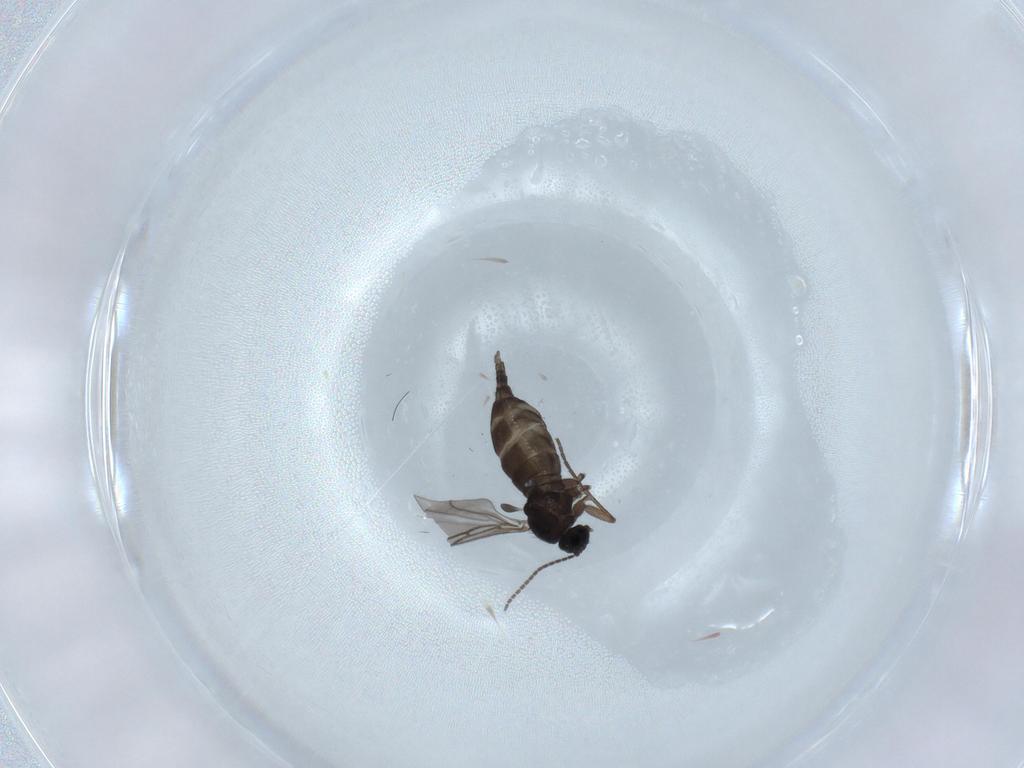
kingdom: Animalia
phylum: Arthropoda
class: Insecta
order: Diptera
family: Sciaridae
